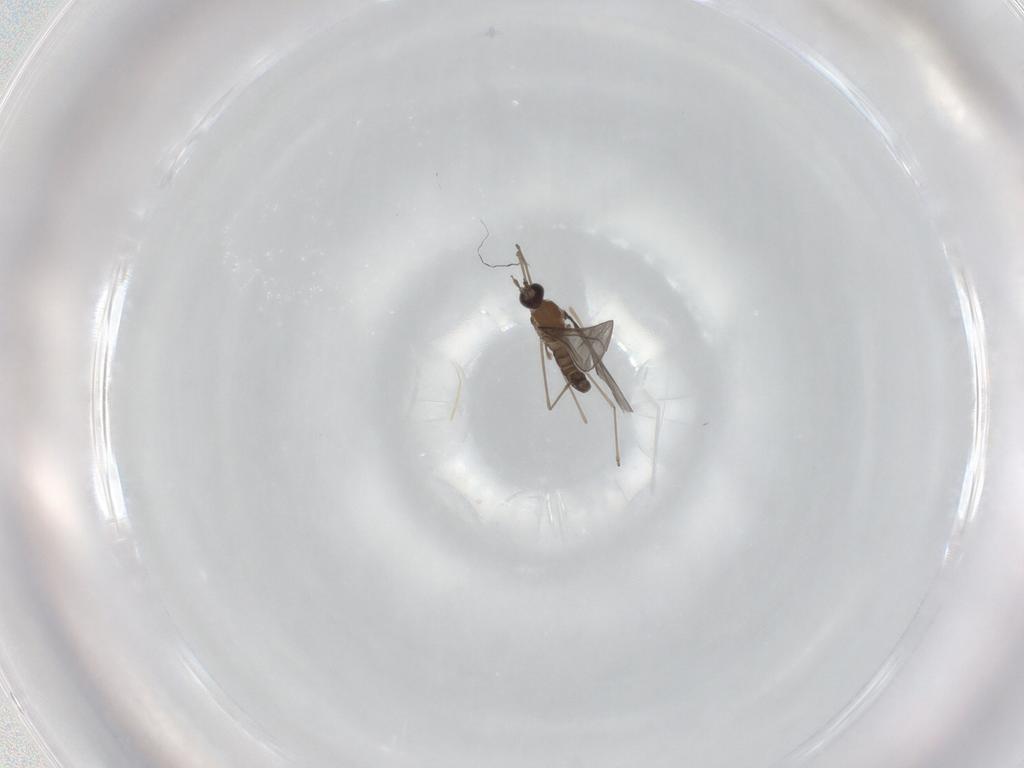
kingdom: Animalia
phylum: Arthropoda
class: Insecta
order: Diptera
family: Cecidomyiidae
